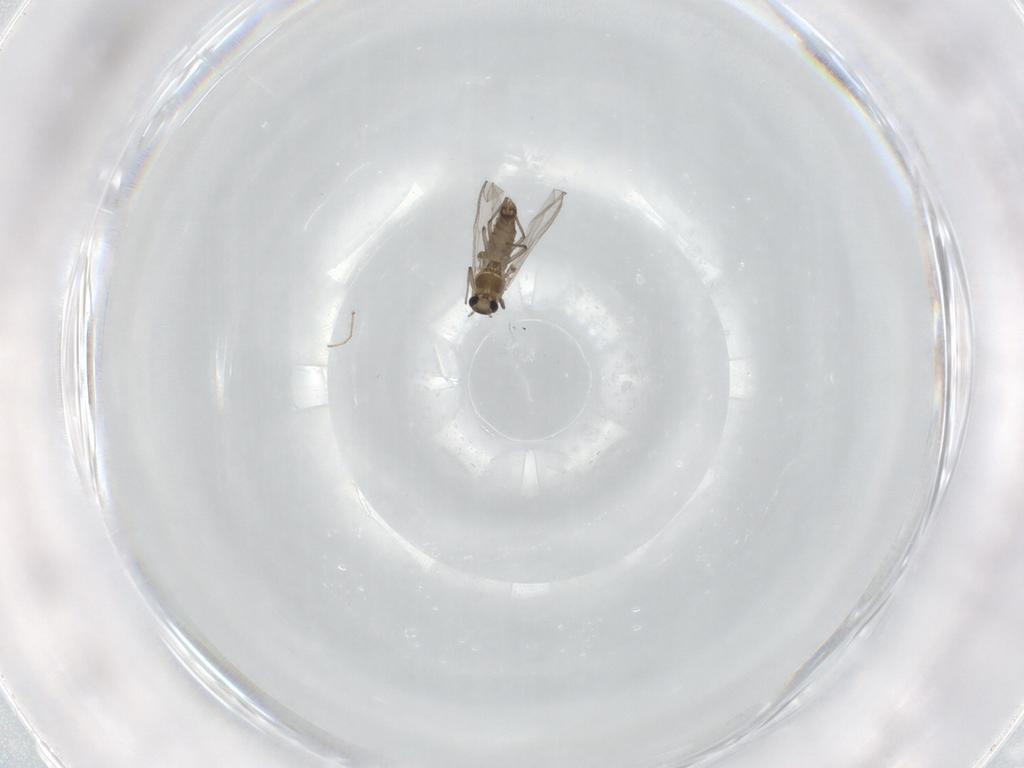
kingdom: Animalia
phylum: Arthropoda
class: Insecta
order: Diptera
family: Chironomidae
